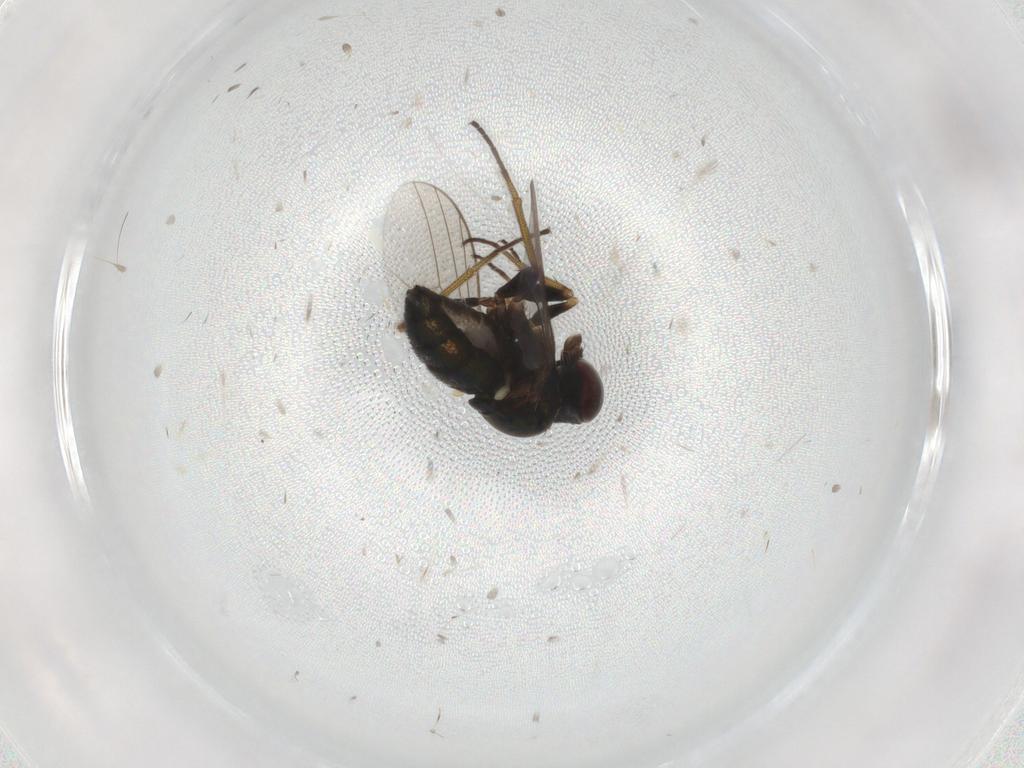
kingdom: Animalia
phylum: Arthropoda
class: Insecta
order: Diptera
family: Dolichopodidae
